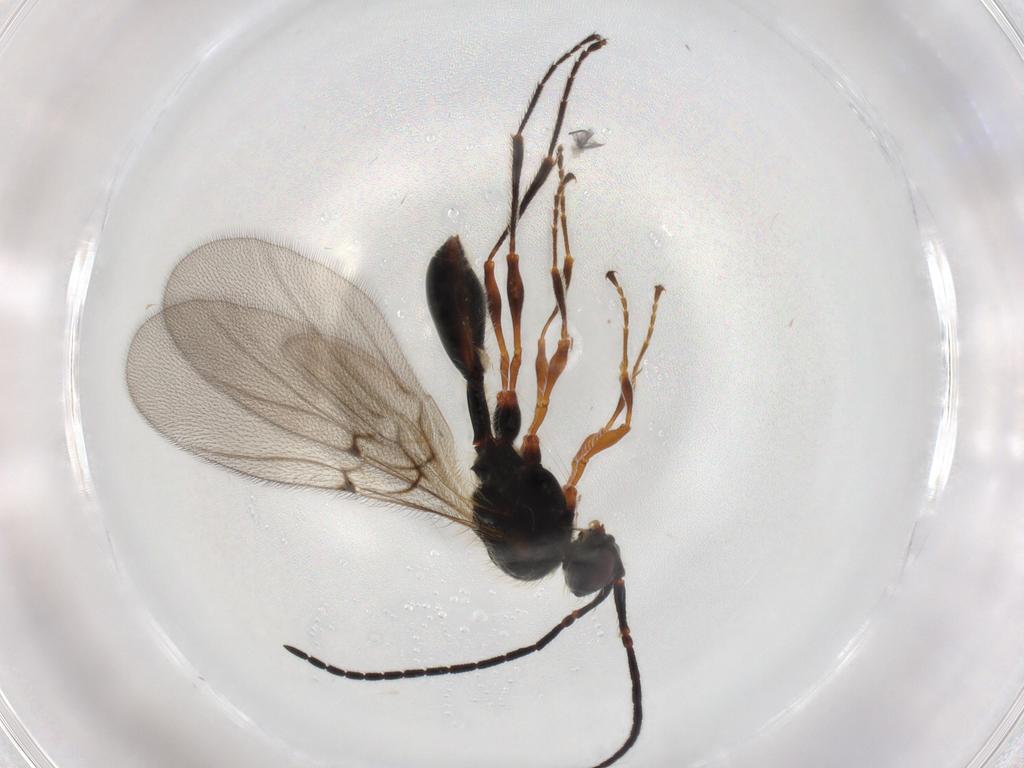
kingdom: Animalia
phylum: Arthropoda
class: Insecta
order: Hymenoptera
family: Diapriidae
